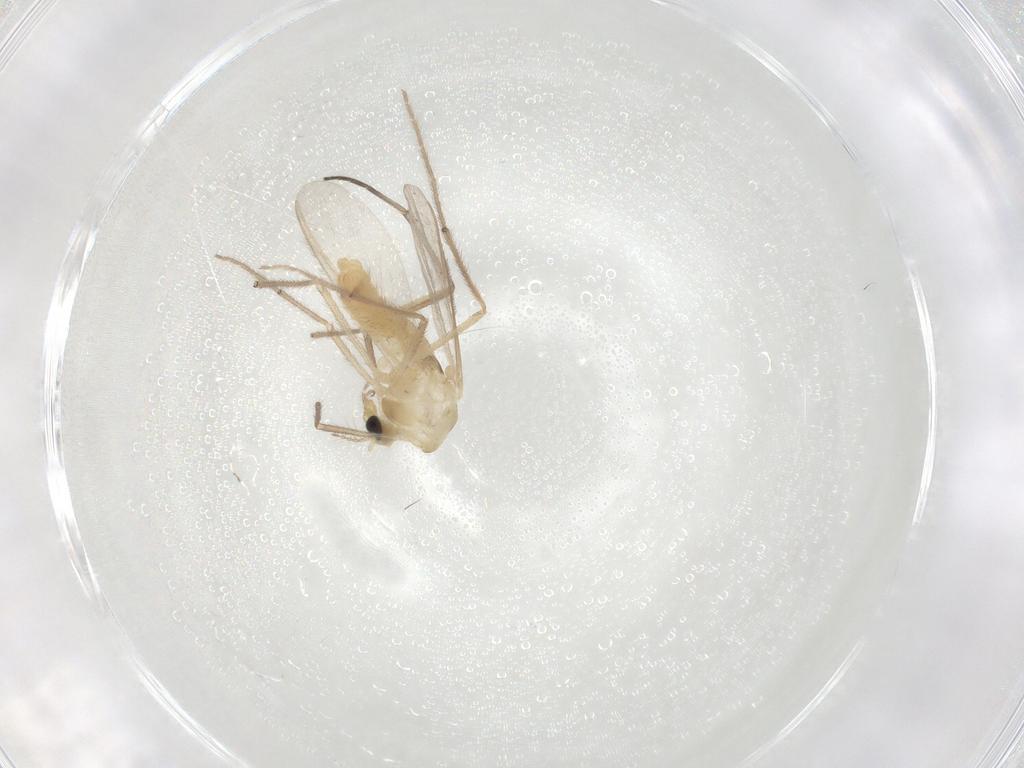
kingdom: Animalia
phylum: Arthropoda
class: Insecta
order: Diptera
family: Chironomidae
